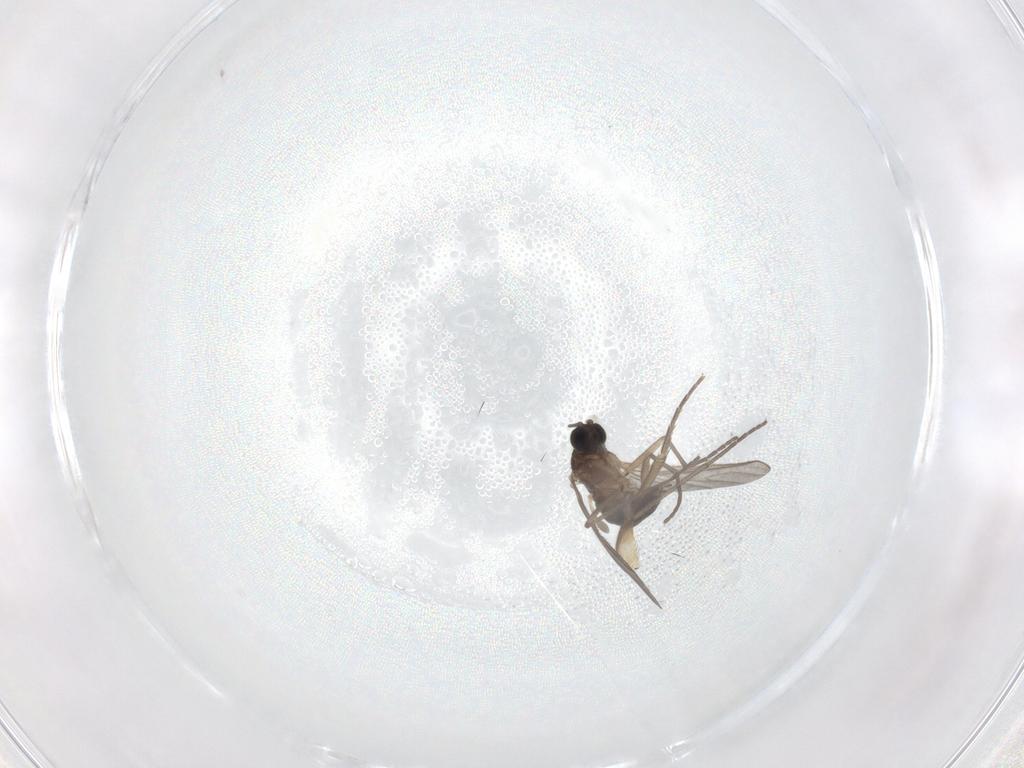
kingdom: Animalia
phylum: Arthropoda
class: Insecta
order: Diptera
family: Sciaridae
